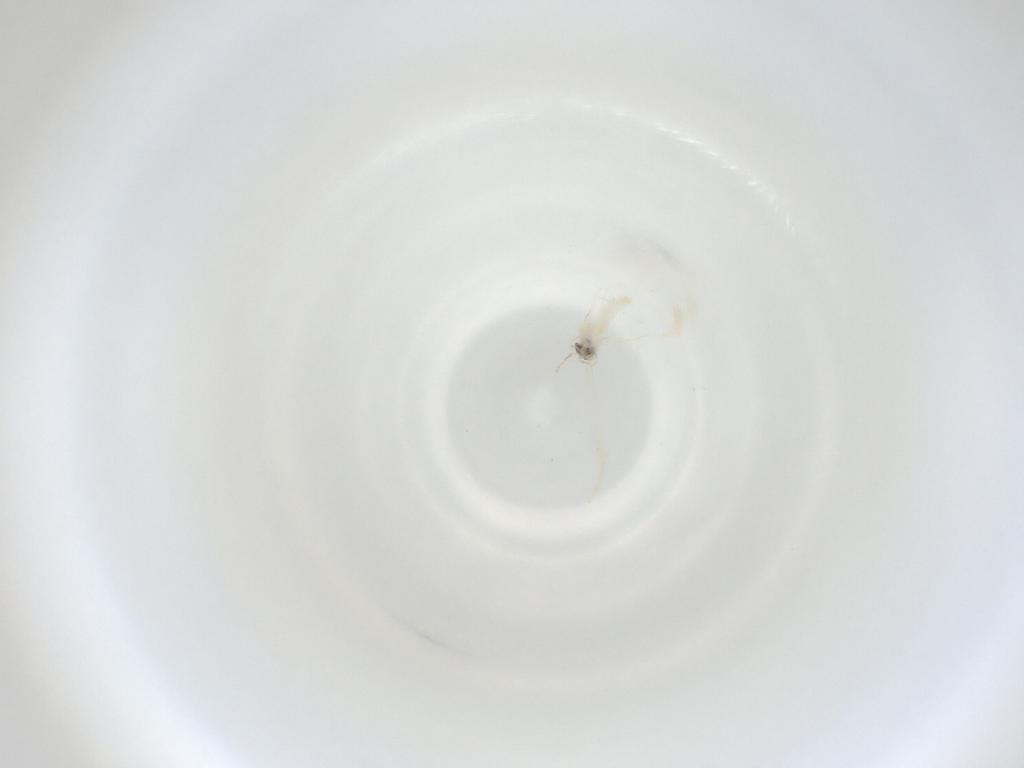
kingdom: Animalia
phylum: Arthropoda
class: Insecta
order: Diptera
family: Cecidomyiidae
